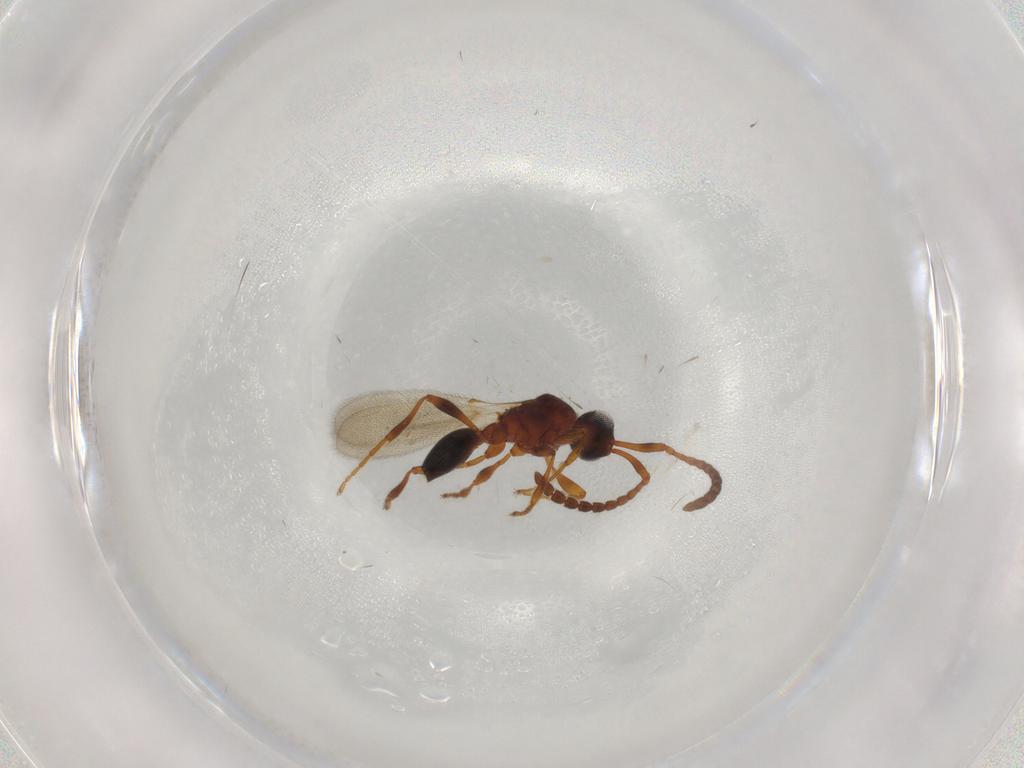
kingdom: Animalia
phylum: Arthropoda
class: Insecta
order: Hymenoptera
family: Diapriidae
